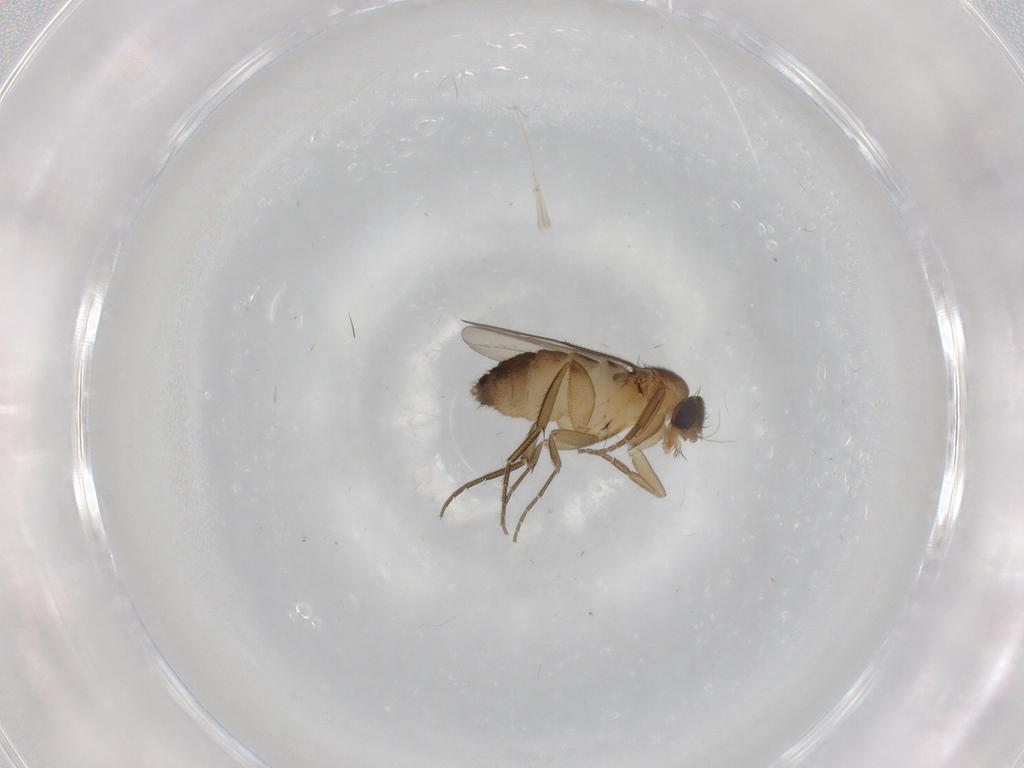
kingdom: Animalia
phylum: Arthropoda
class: Insecta
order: Diptera
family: Phoridae
